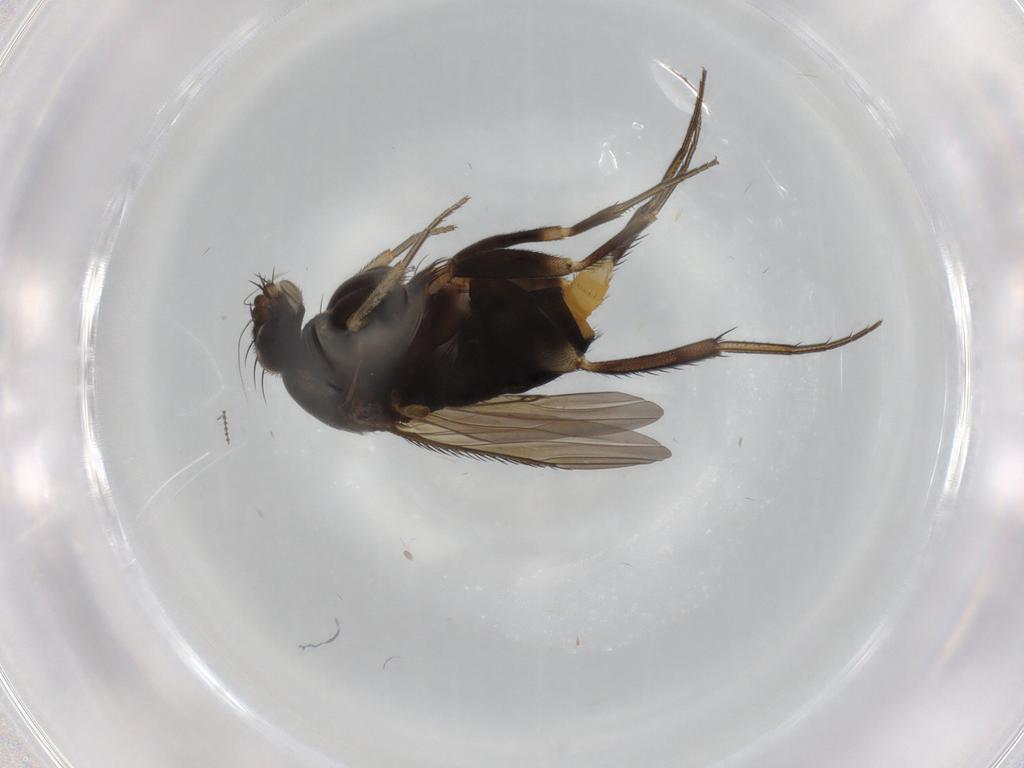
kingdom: Animalia
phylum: Arthropoda
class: Insecta
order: Diptera
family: Phoridae
